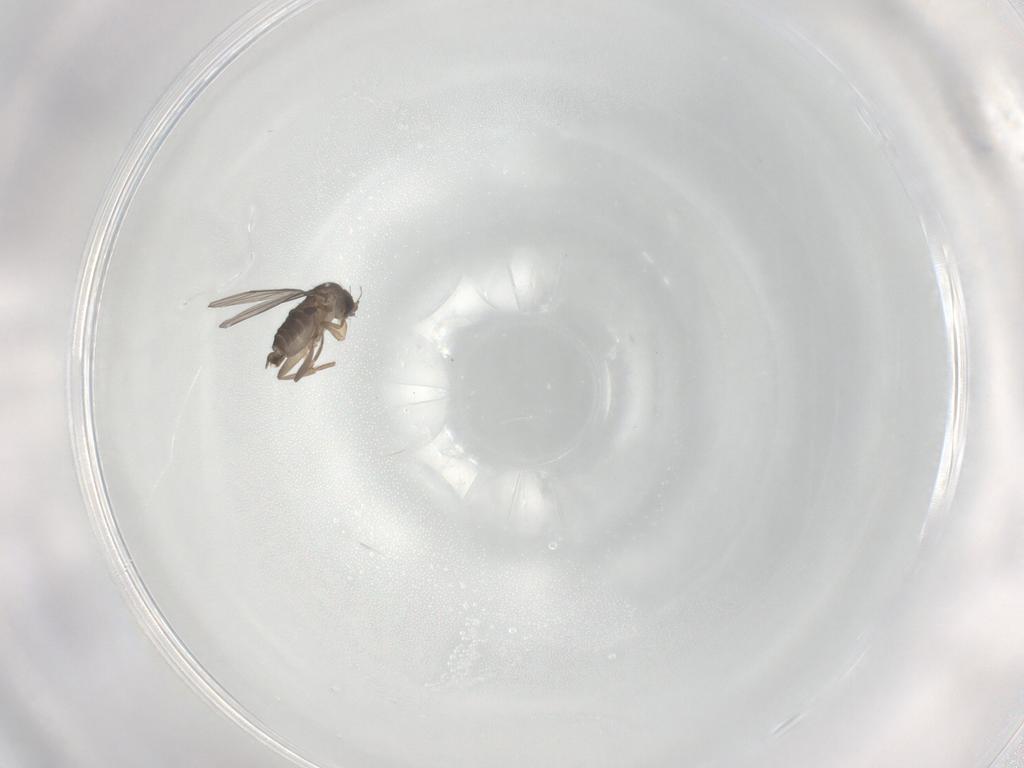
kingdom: Animalia
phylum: Arthropoda
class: Insecta
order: Diptera
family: Phoridae
